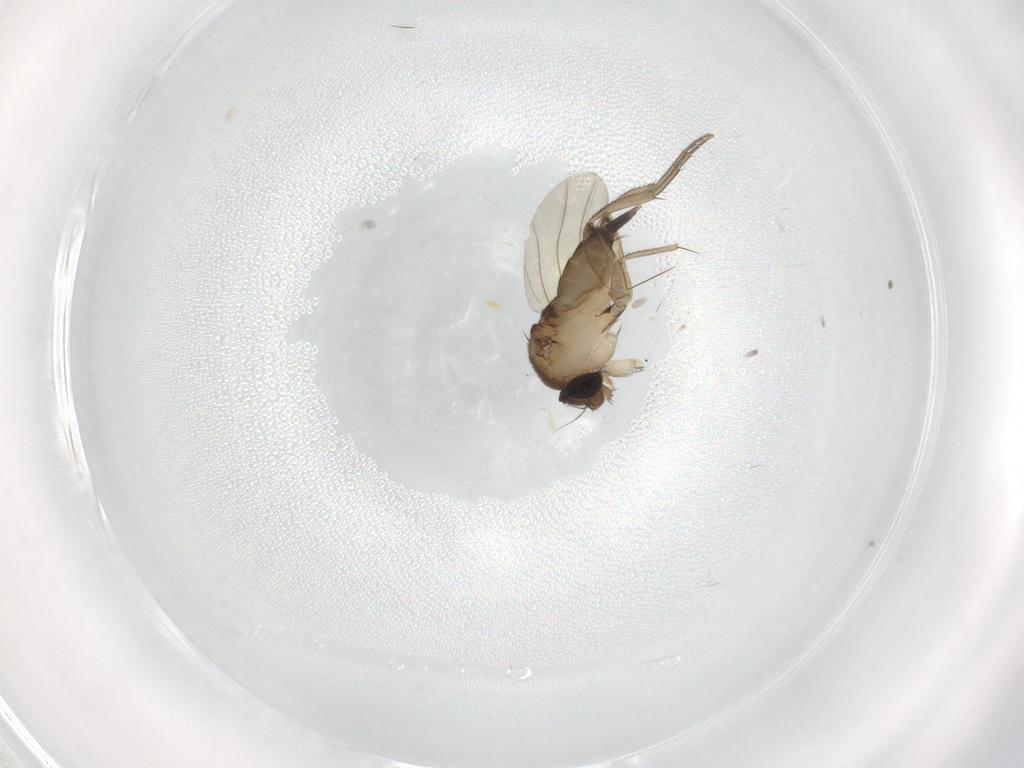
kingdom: Animalia
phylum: Arthropoda
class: Insecta
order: Diptera
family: Phoridae
